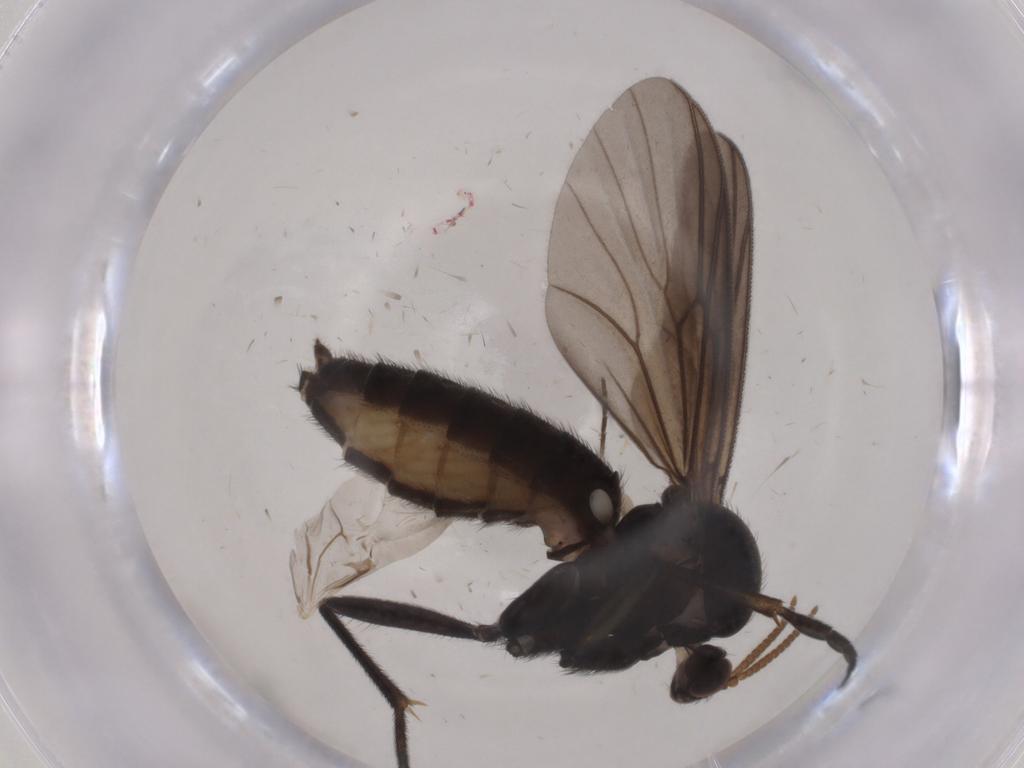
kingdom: Animalia
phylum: Arthropoda
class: Insecta
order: Diptera
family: Mycetophilidae
